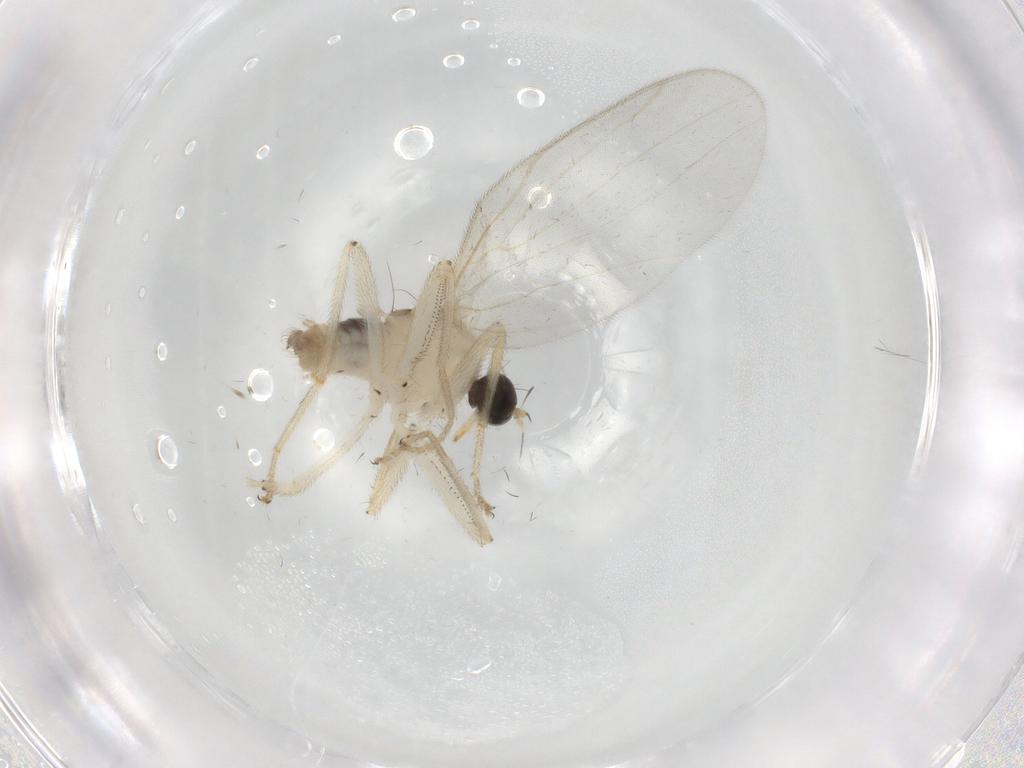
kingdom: Animalia
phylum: Arthropoda
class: Insecta
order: Diptera
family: Hybotidae
